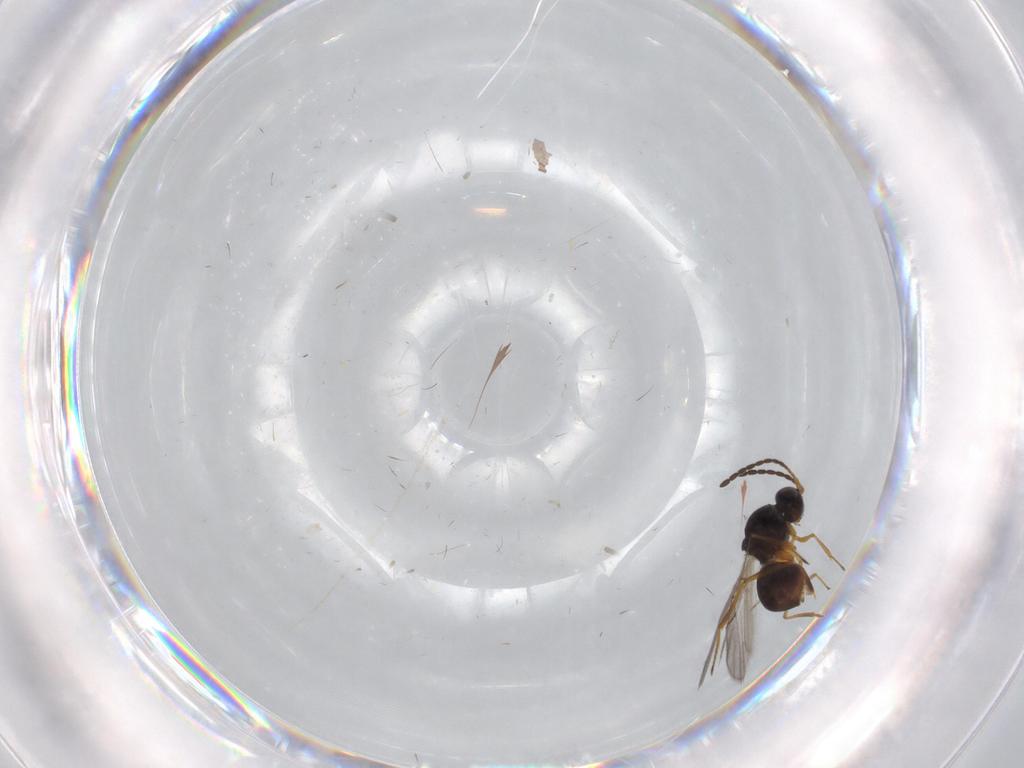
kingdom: Animalia
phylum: Arthropoda
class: Insecta
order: Hymenoptera
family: Figitidae
